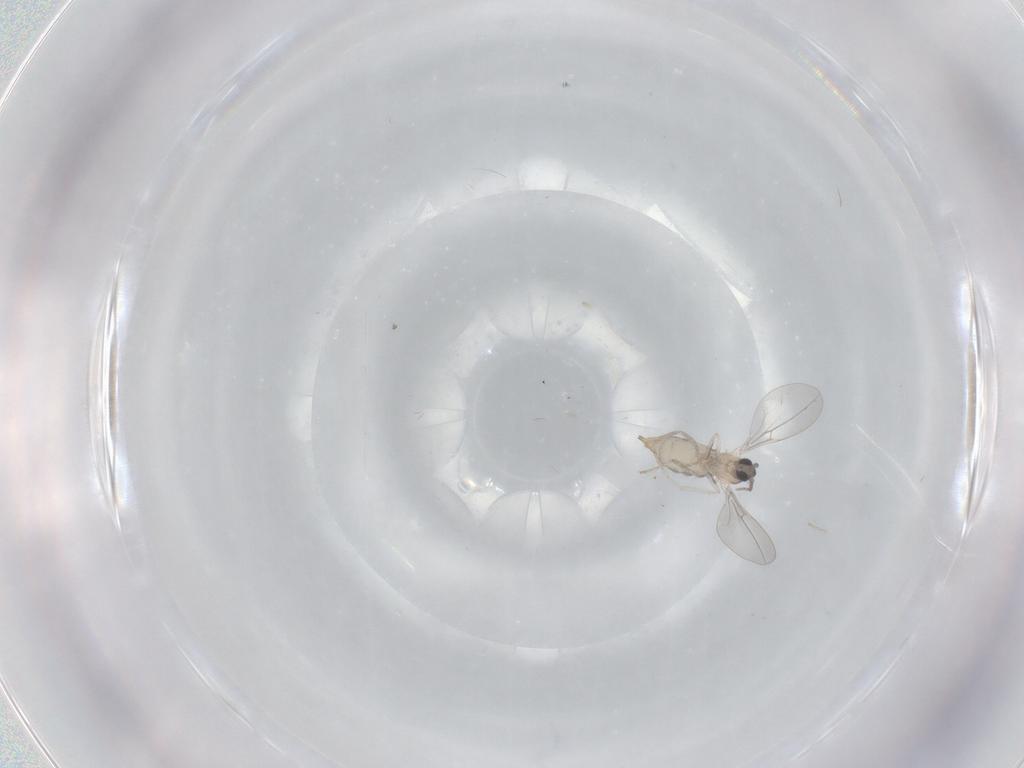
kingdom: Animalia
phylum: Arthropoda
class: Insecta
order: Diptera
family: Cecidomyiidae
